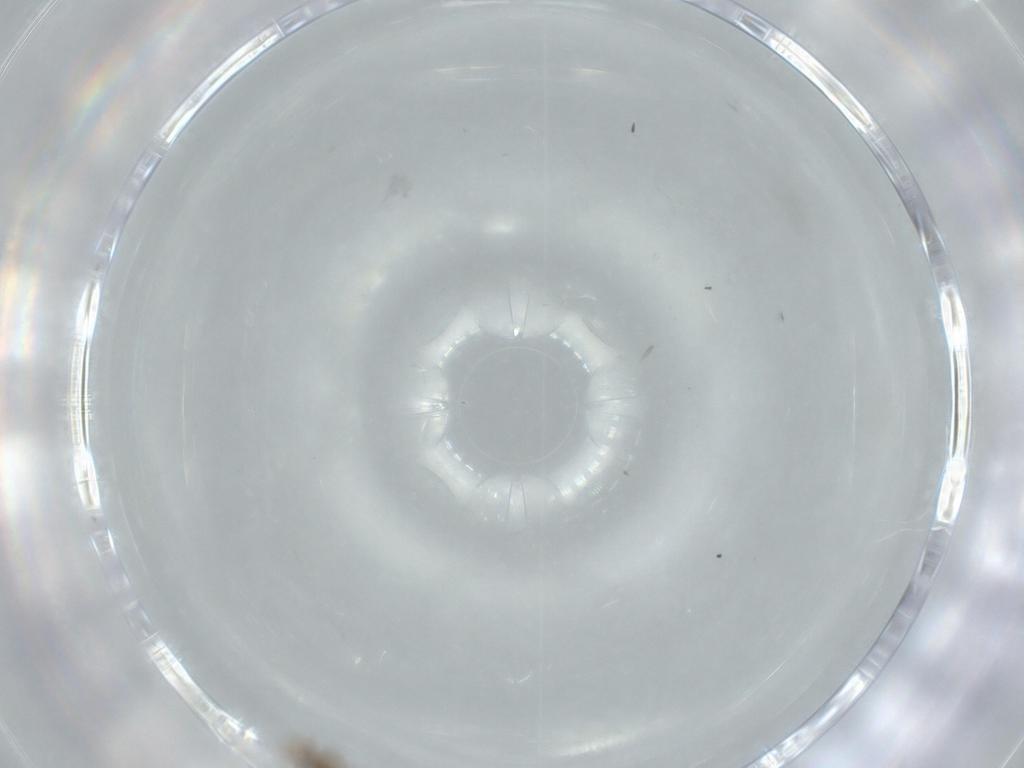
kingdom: Animalia
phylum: Arthropoda
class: Insecta
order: Diptera
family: Cecidomyiidae
